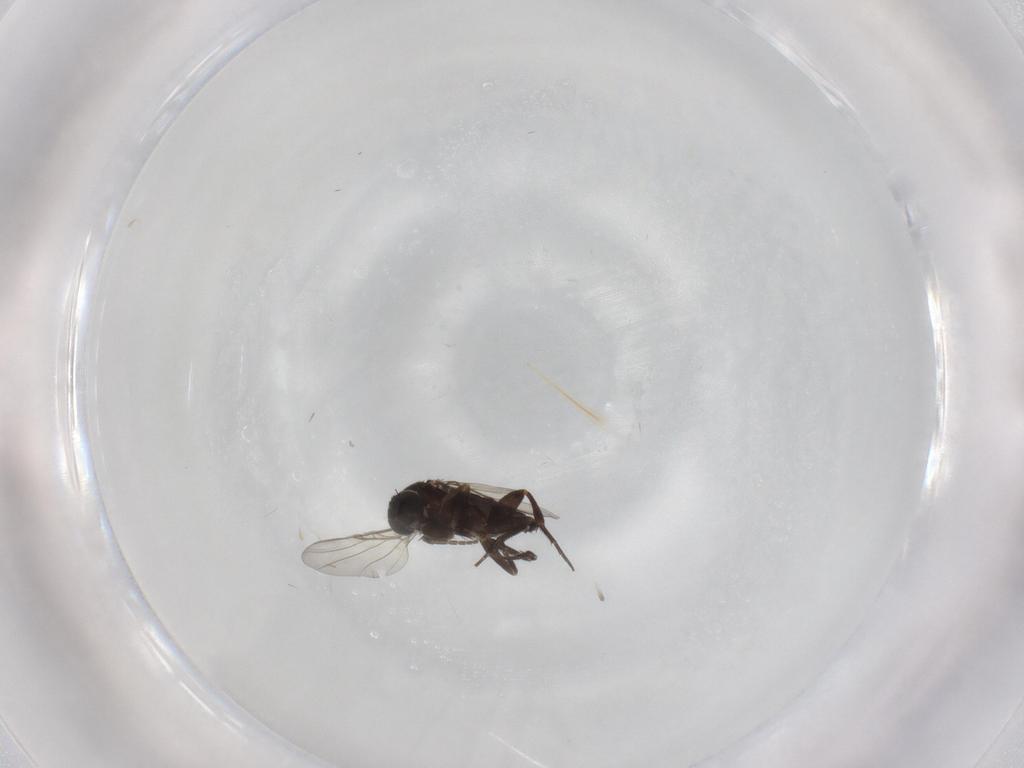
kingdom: Animalia
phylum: Arthropoda
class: Insecta
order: Diptera
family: Phoridae
